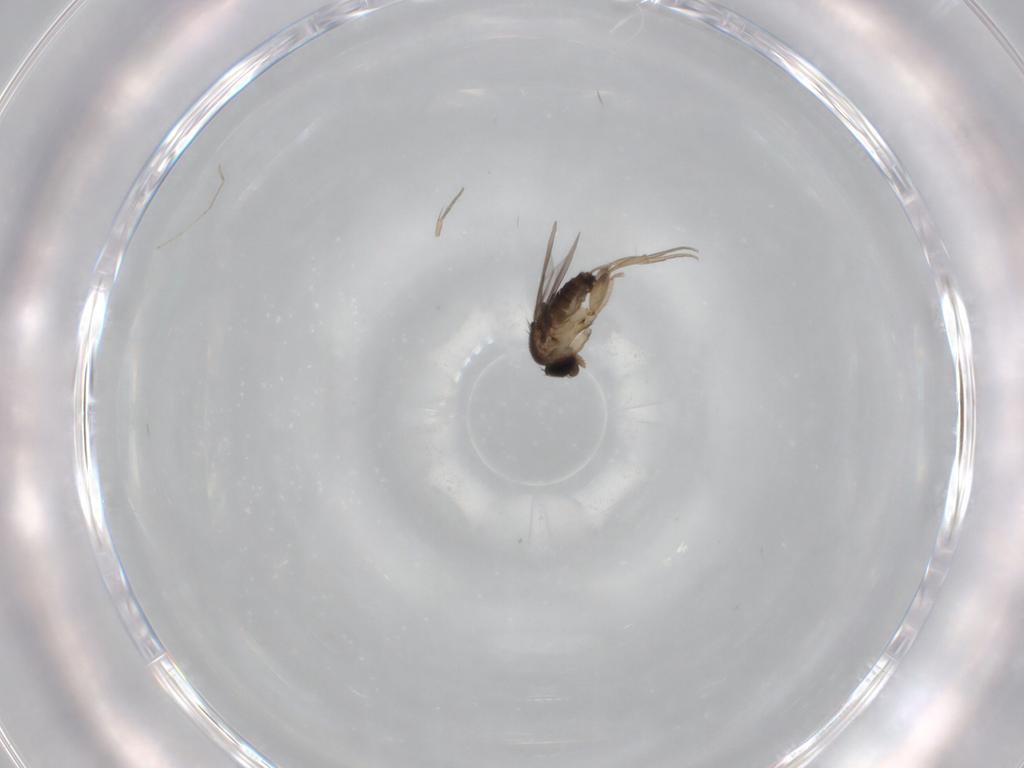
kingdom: Animalia
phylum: Arthropoda
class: Insecta
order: Diptera
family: Phoridae
